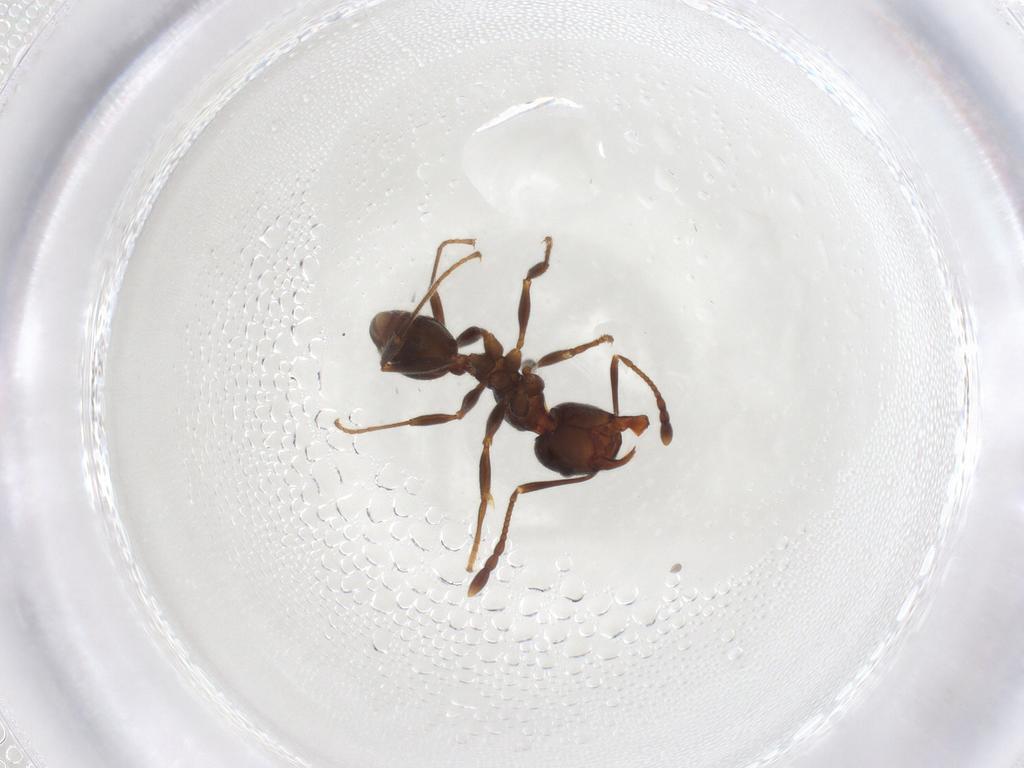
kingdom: Animalia
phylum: Arthropoda
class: Insecta
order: Hymenoptera
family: Formicidae
